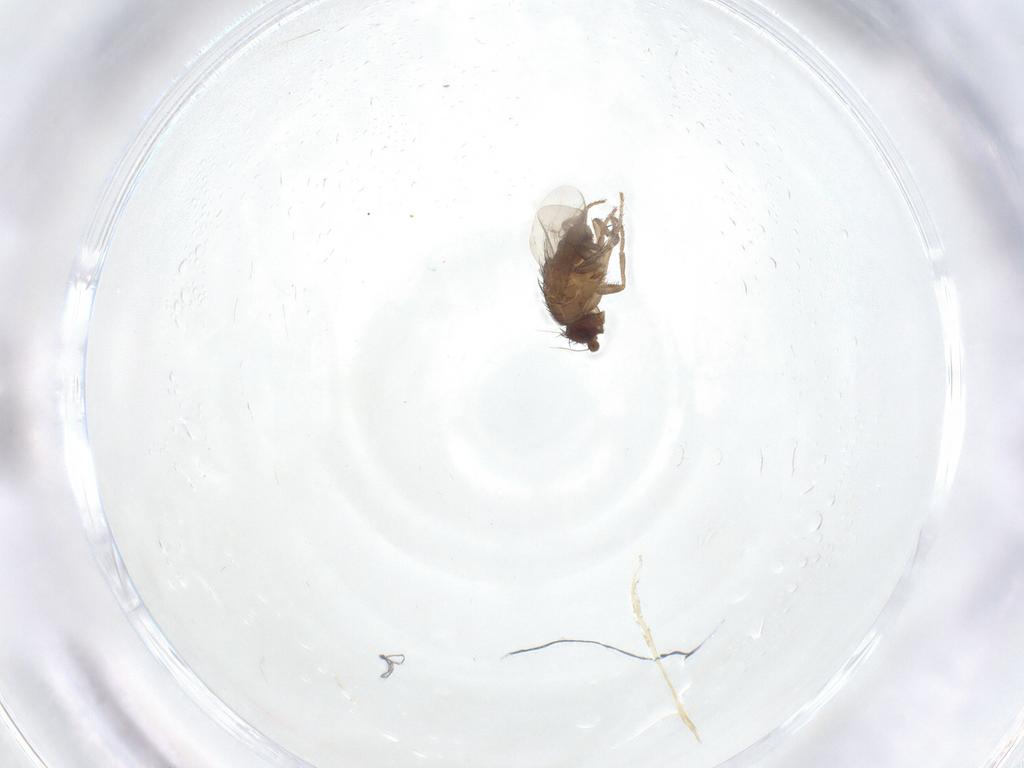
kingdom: Animalia
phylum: Arthropoda
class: Insecta
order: Diptera
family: Sphaeroceridae
